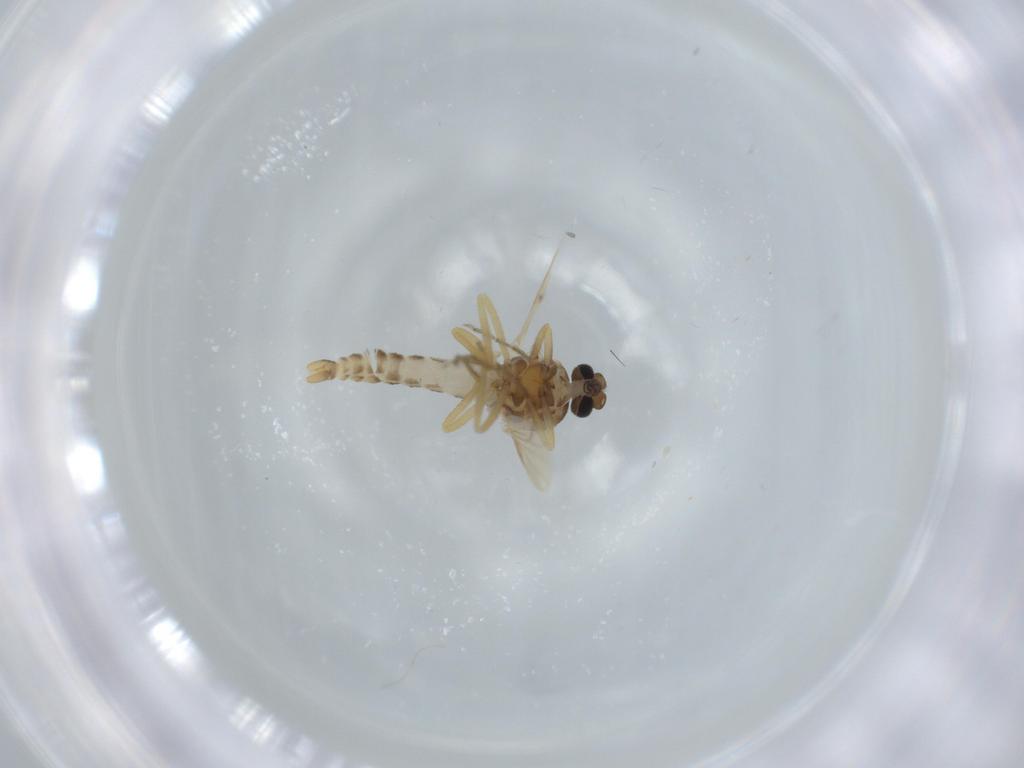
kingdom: Animalia
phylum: Arthropoda
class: Insecta
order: Diptera
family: Ceratopogonidae
